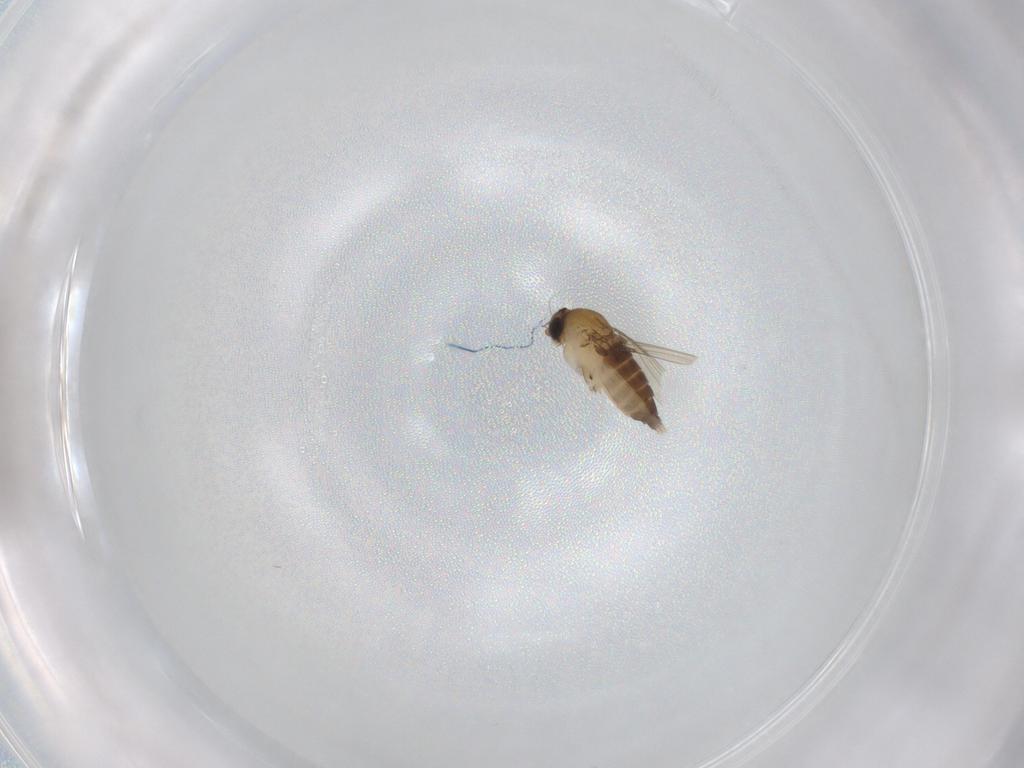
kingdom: Animalia
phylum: Arthropoda
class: Insecta
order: Diptera
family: Phoridae
